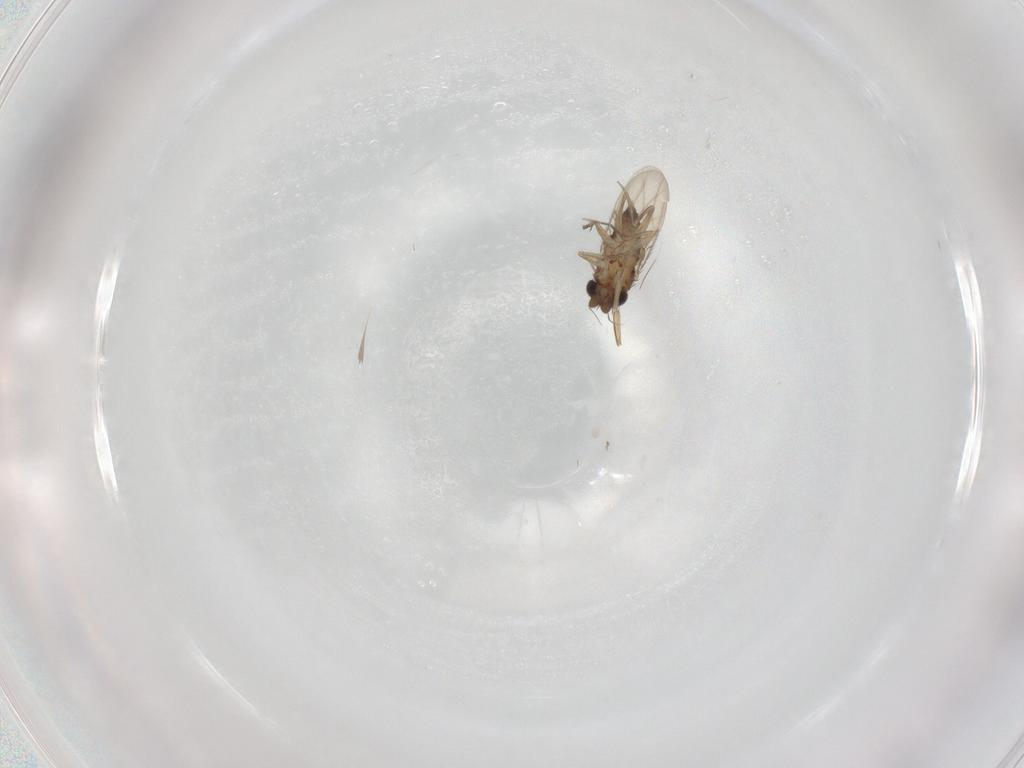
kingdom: Animalia
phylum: Arthropoda
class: Insecta
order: Diptera
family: Phoridae
